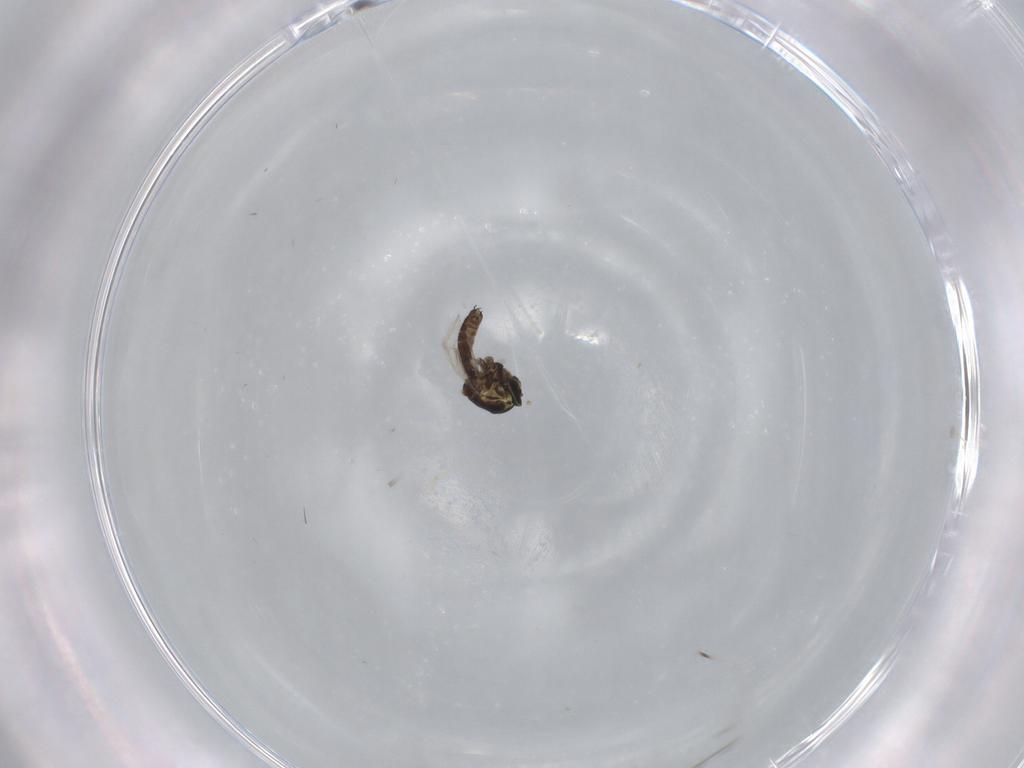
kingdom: Animalia
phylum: Arthropoda
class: Insecta
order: Diptera
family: Ceratopogonidae
